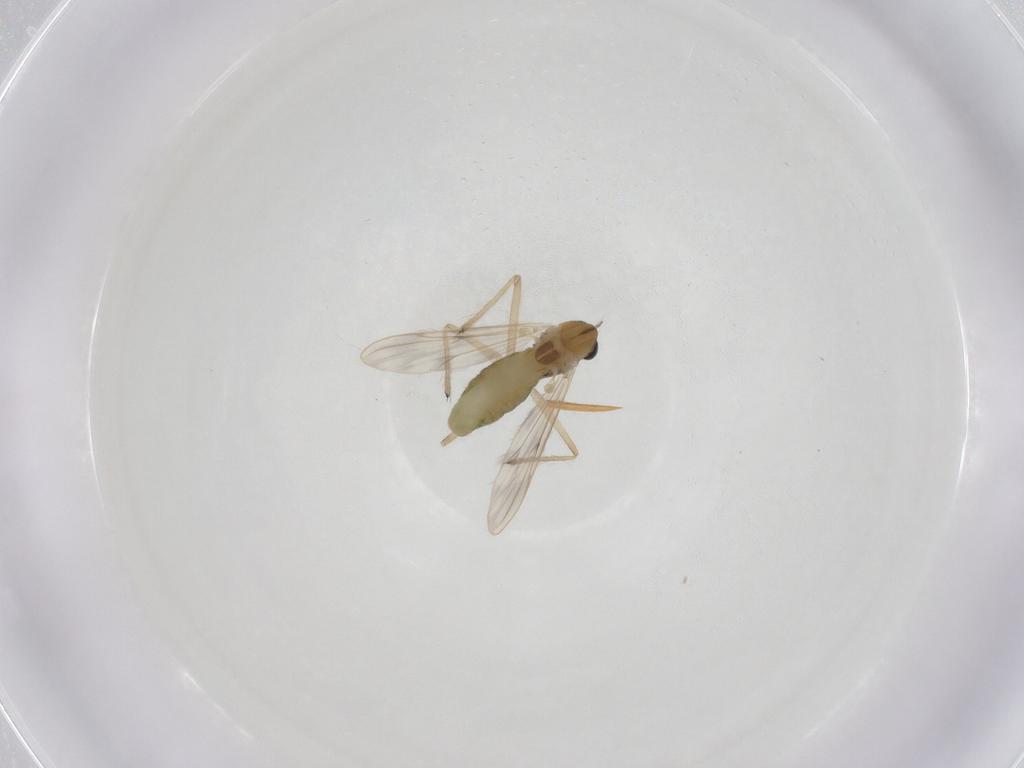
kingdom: Animalia
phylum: Arthropoda
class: Insecta
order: Diptera
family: Chironomidae
